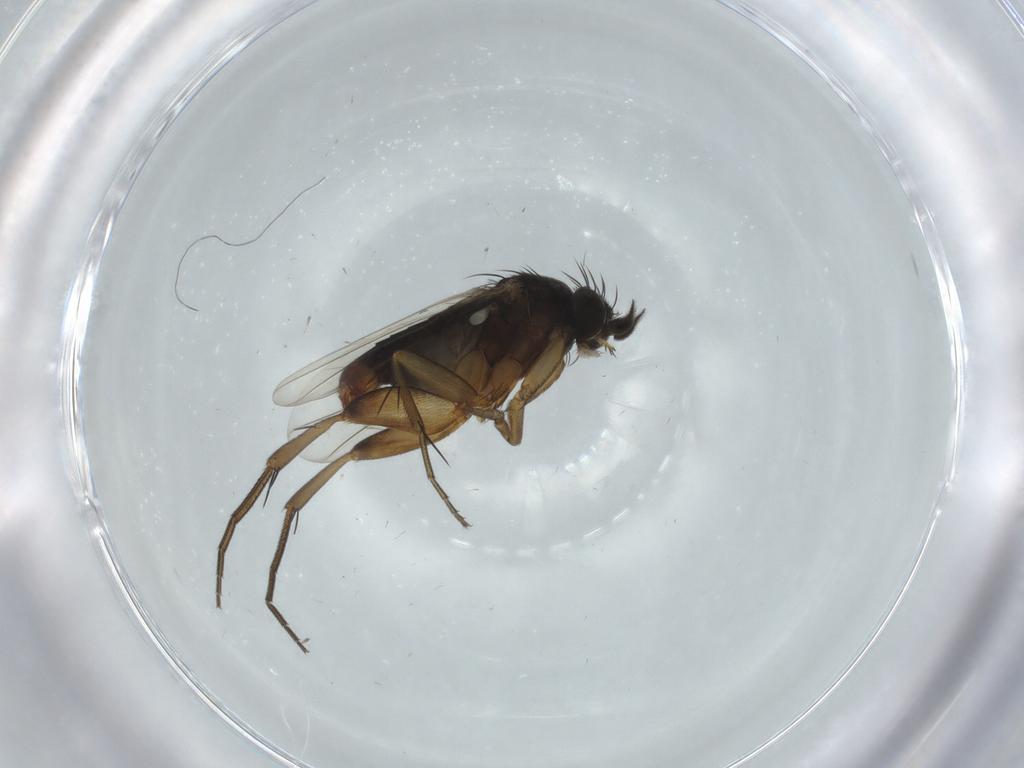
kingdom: Animalia
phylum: Arthropoda
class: Insecta
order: Diptera
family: Phoridae
